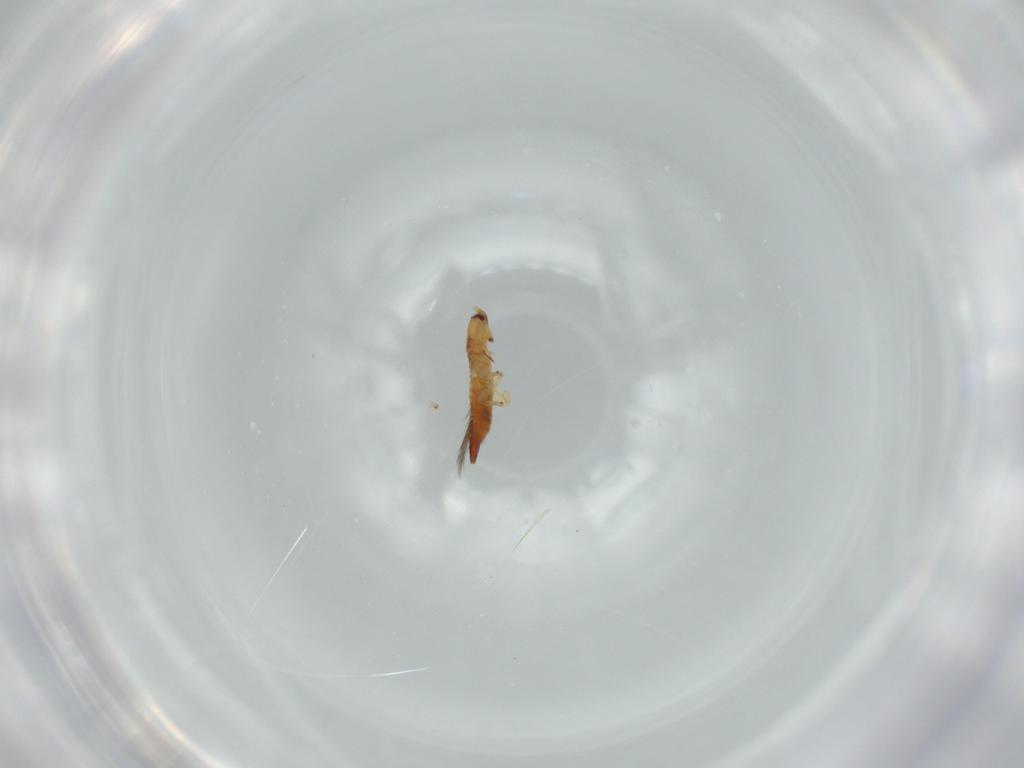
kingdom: Animalia
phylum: Arthropoda
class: Insecta
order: Thysanoptera
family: Phlaeothripidae
